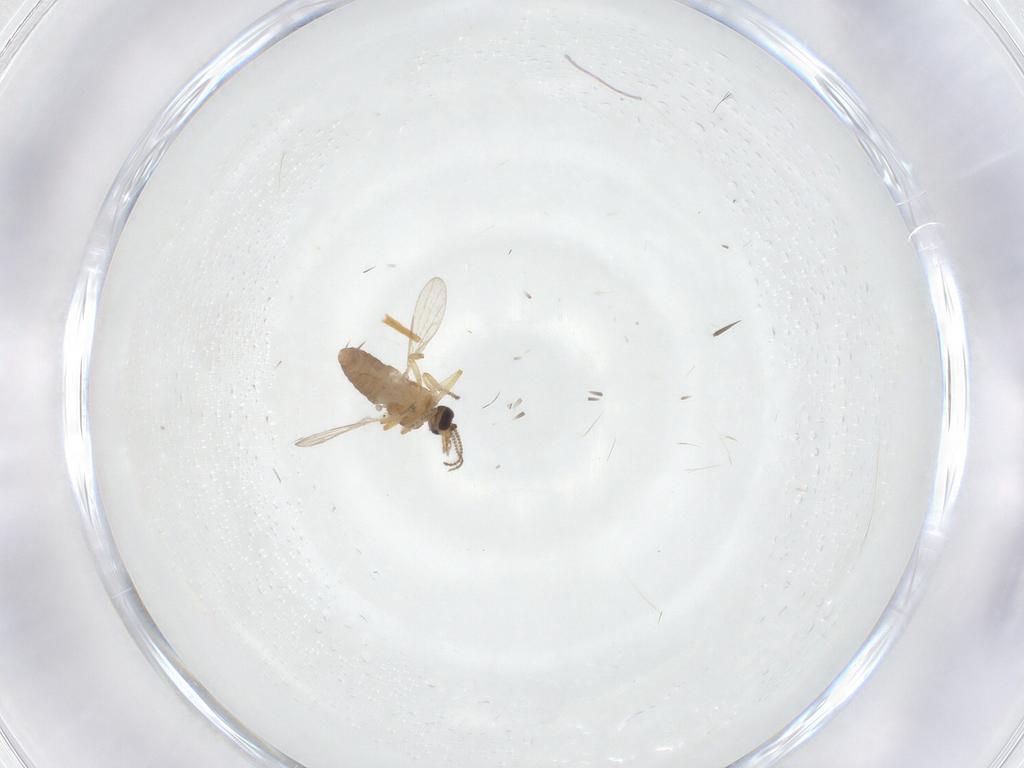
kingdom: Animalia
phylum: Arthropoda
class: Insecta
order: Diptera
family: Ceratopogonidae
